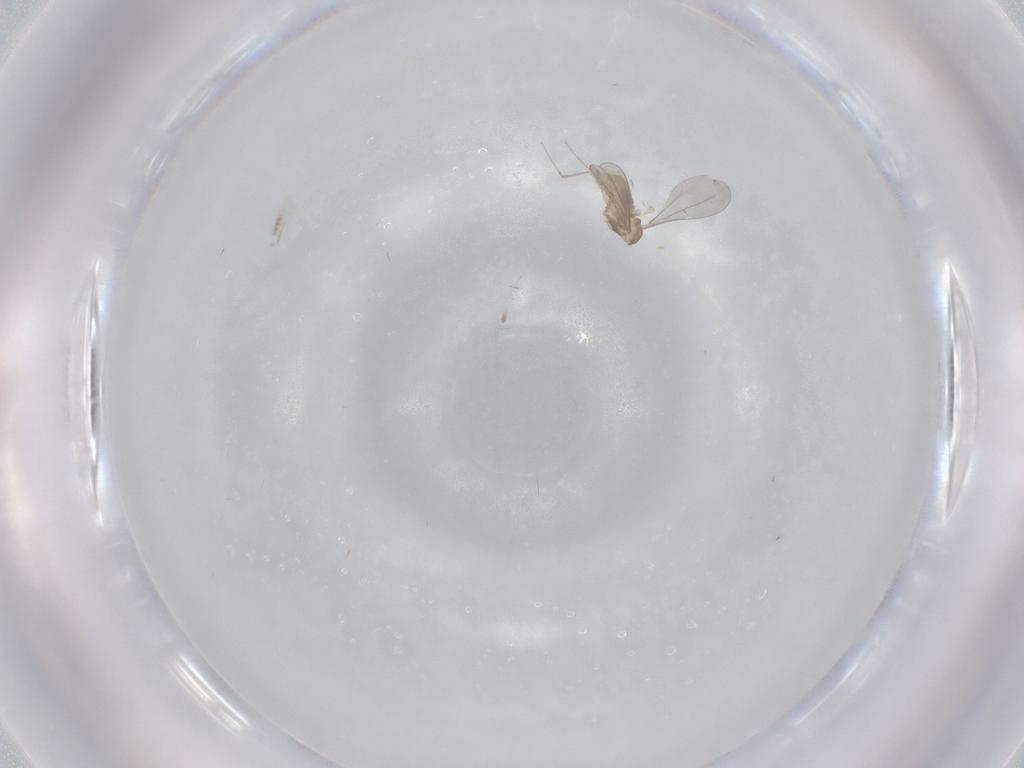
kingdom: Animalia
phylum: Arthropoda
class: Insecta
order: Diptera
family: Cecidomyiidae
